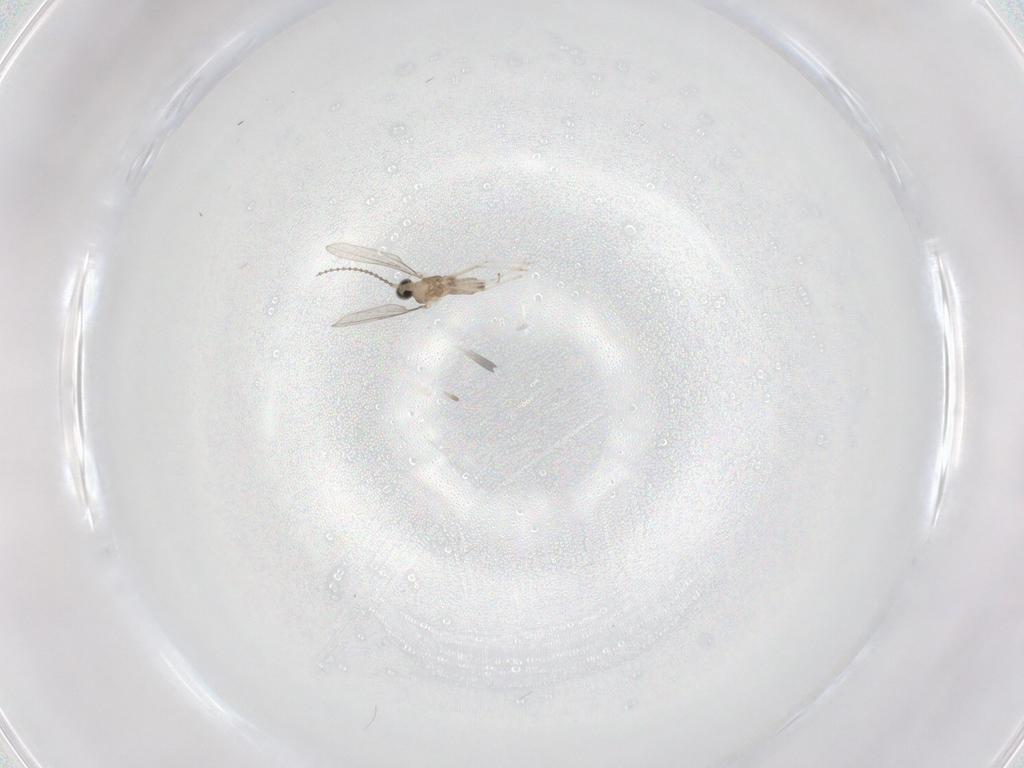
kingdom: Animalia
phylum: Arthropoda
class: Insecta
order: Diptera
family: Cecidomyiidae
